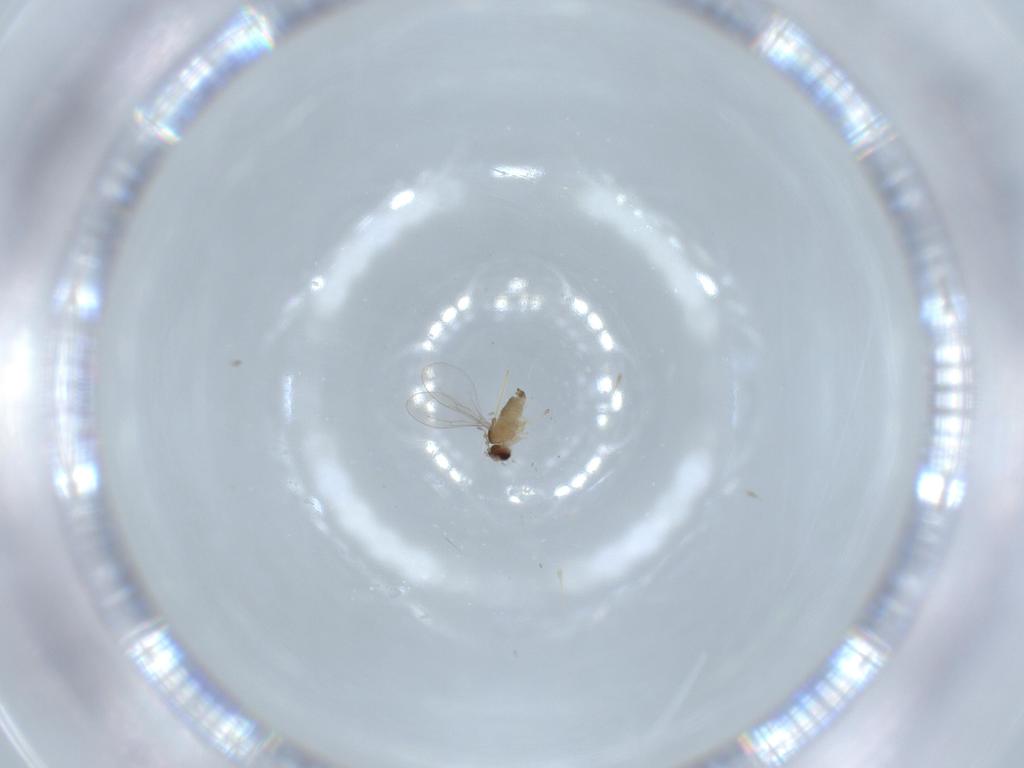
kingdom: Animalia
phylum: Arthropoda
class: Insecta
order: Diptera
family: Cecidomyiidae
